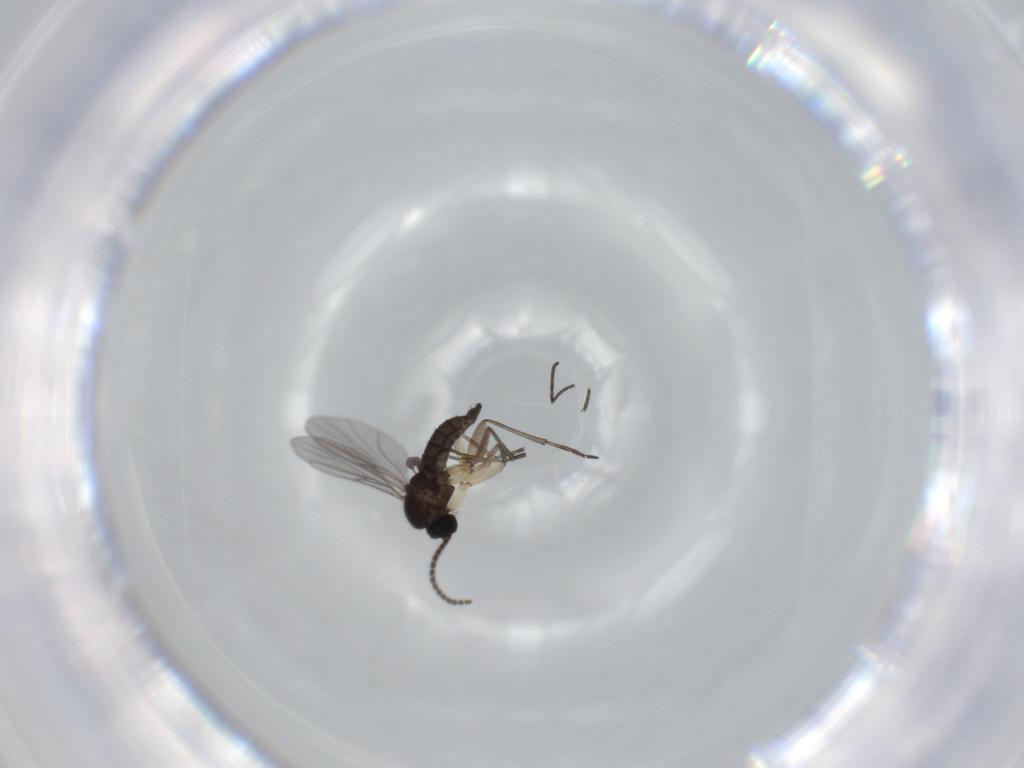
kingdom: Animalia
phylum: Arthropoda
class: Insecta
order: Diptera
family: Sciaridae
